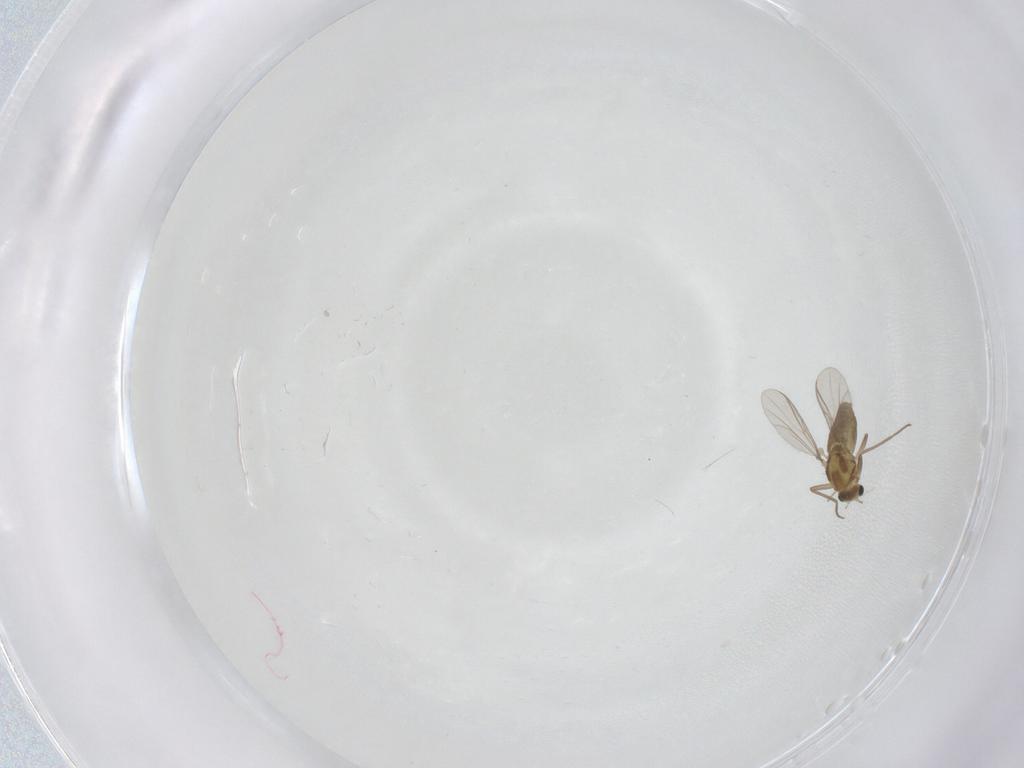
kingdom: Animalia
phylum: Arthropoda
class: Insecta
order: Diptera
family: Chironomidae
